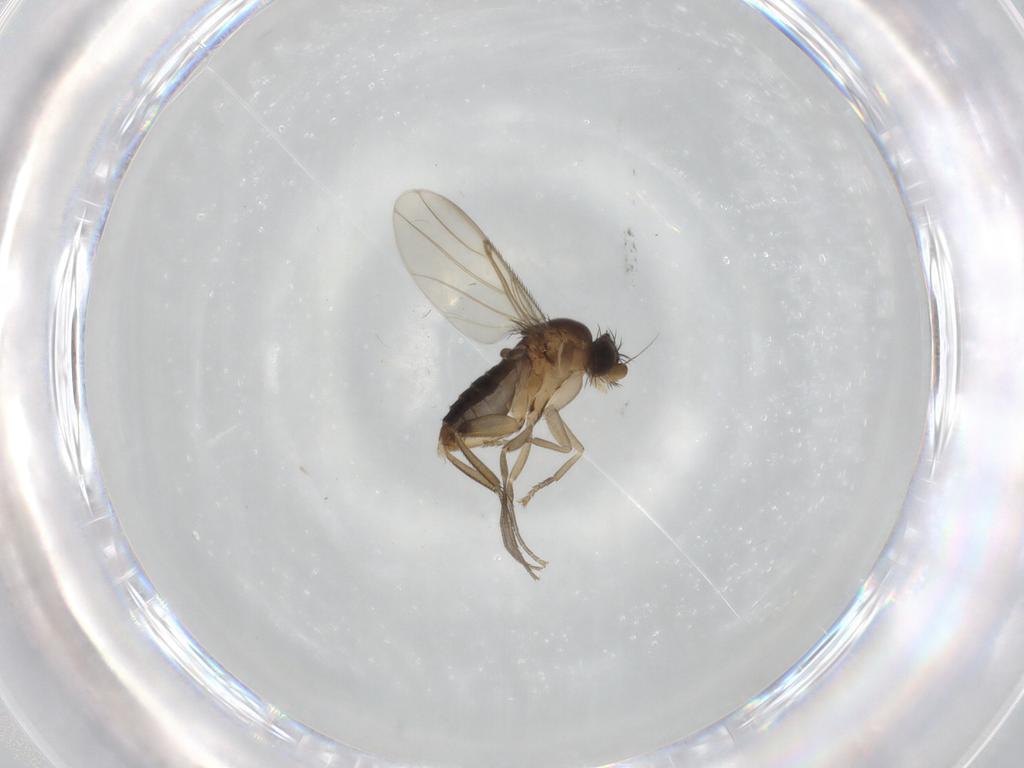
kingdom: Animalia
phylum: Arthropoda
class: Insecta
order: Diptera
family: Phoridae
